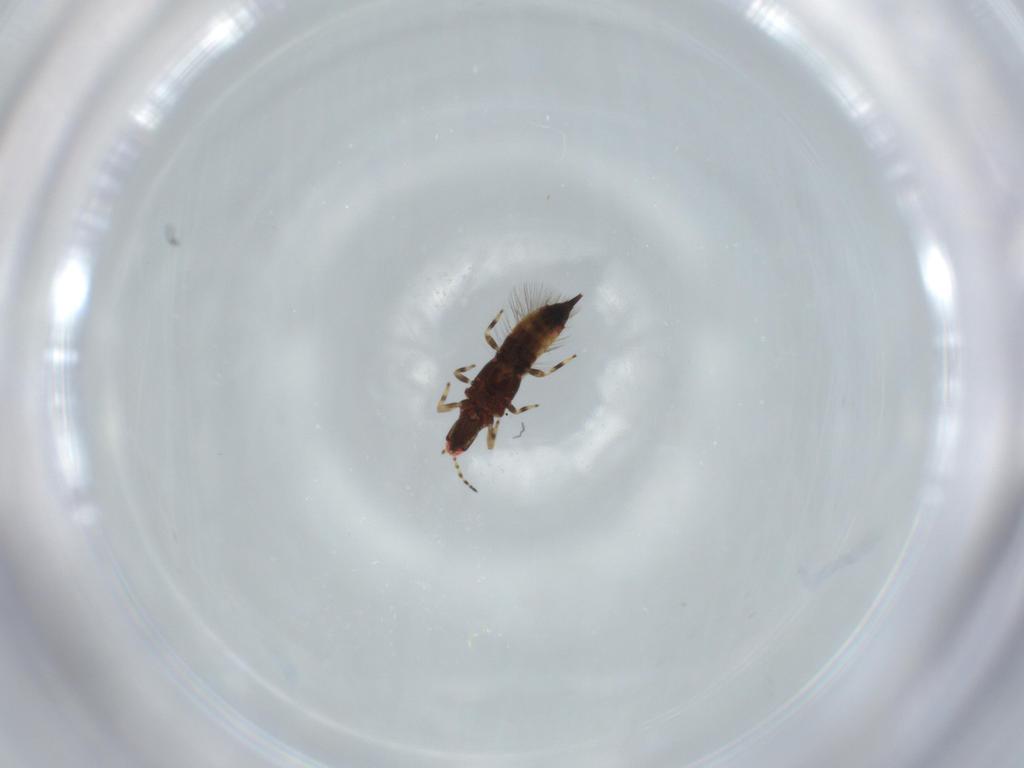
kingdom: Animalia
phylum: Arthropoda
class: Insecta
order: Thysanoptera
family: Phlaeothripidae
